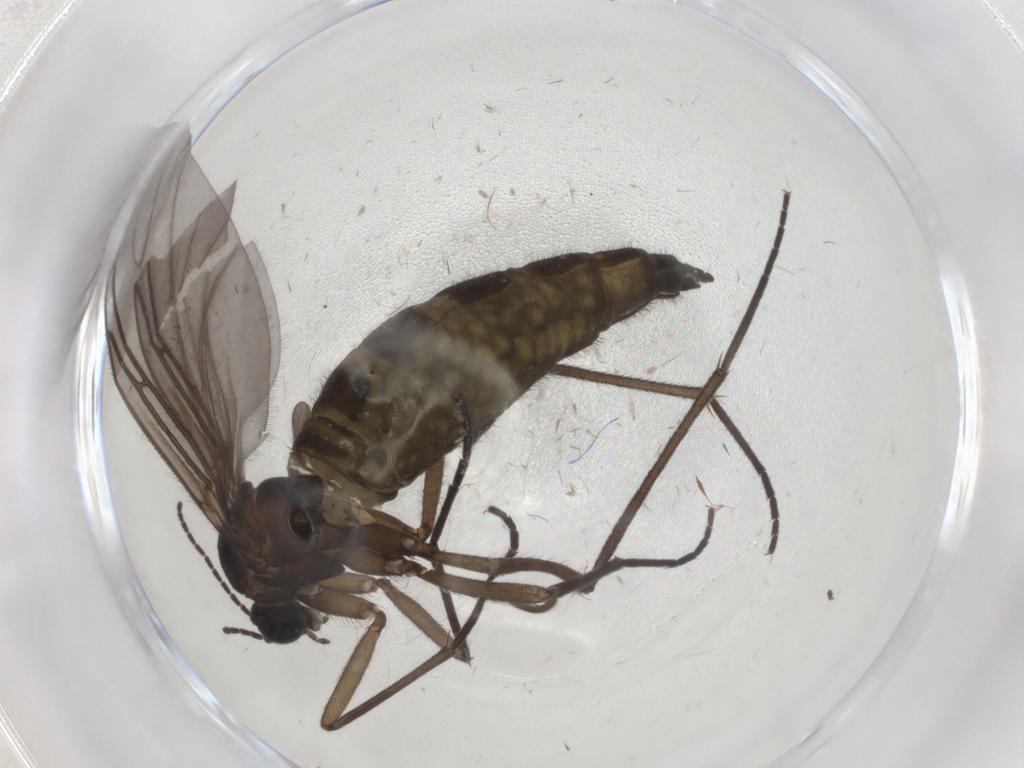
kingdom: Animalia
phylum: Arthropoda
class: Insecta
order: Diptera
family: Sciaridae
